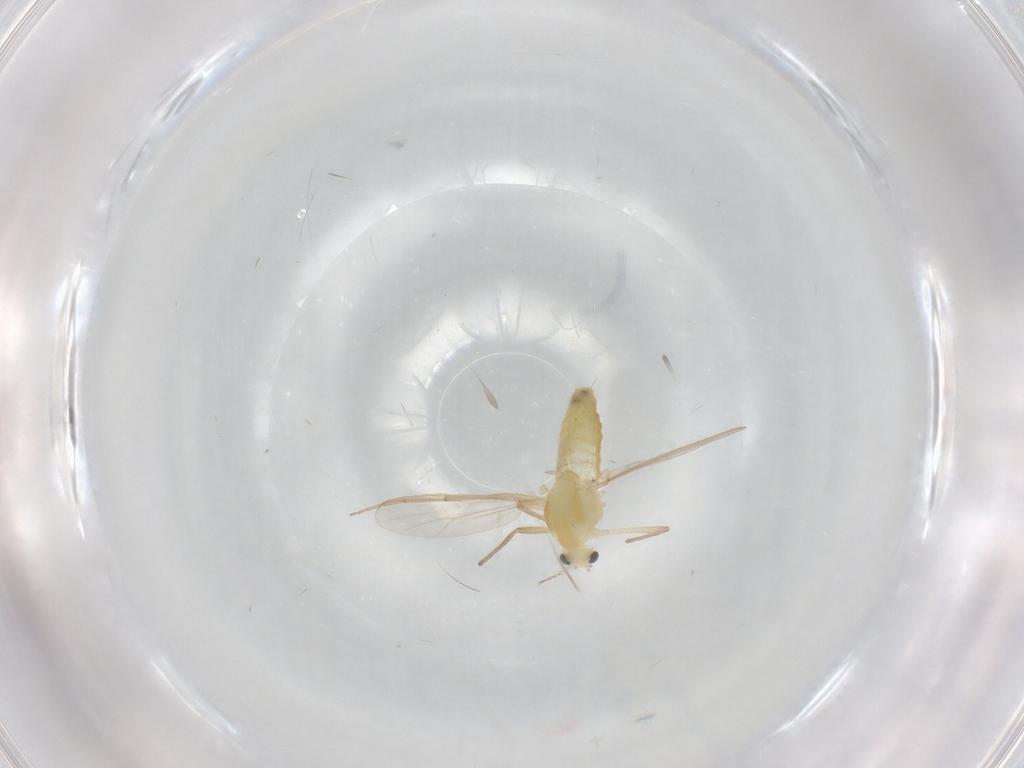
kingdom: Animalia
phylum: Arthropoda
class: Insecta
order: Diptera
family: Chironomidae
